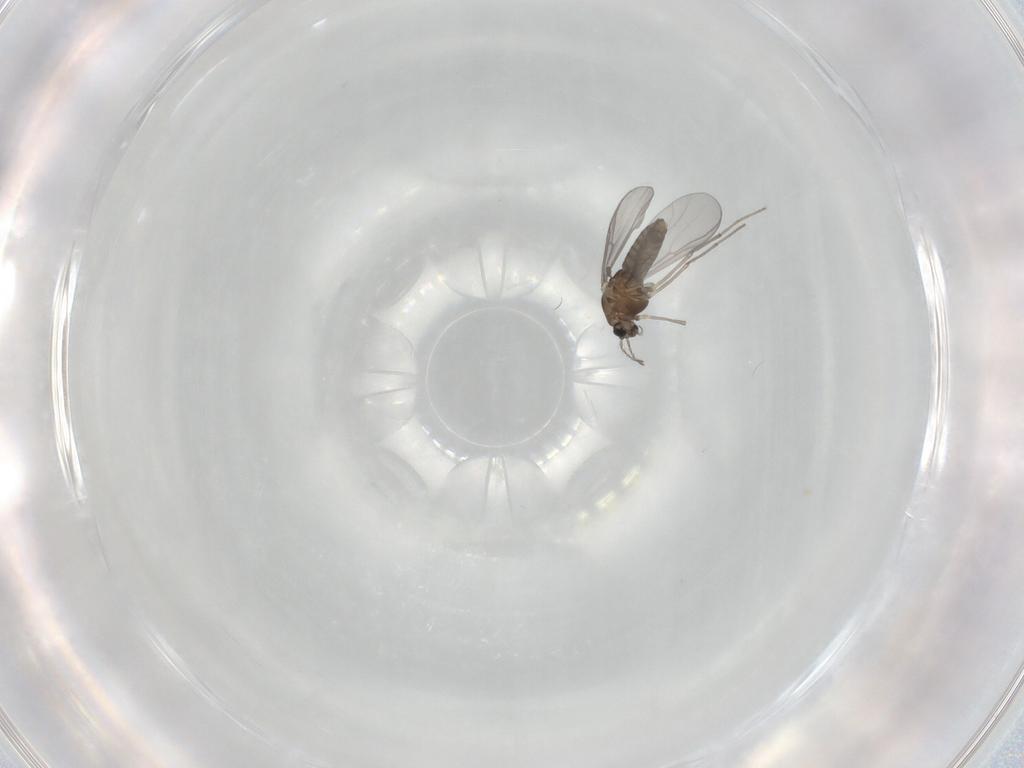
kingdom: Animalia
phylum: Arthropoda
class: Insecta
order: Diptera
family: Chironomidae
